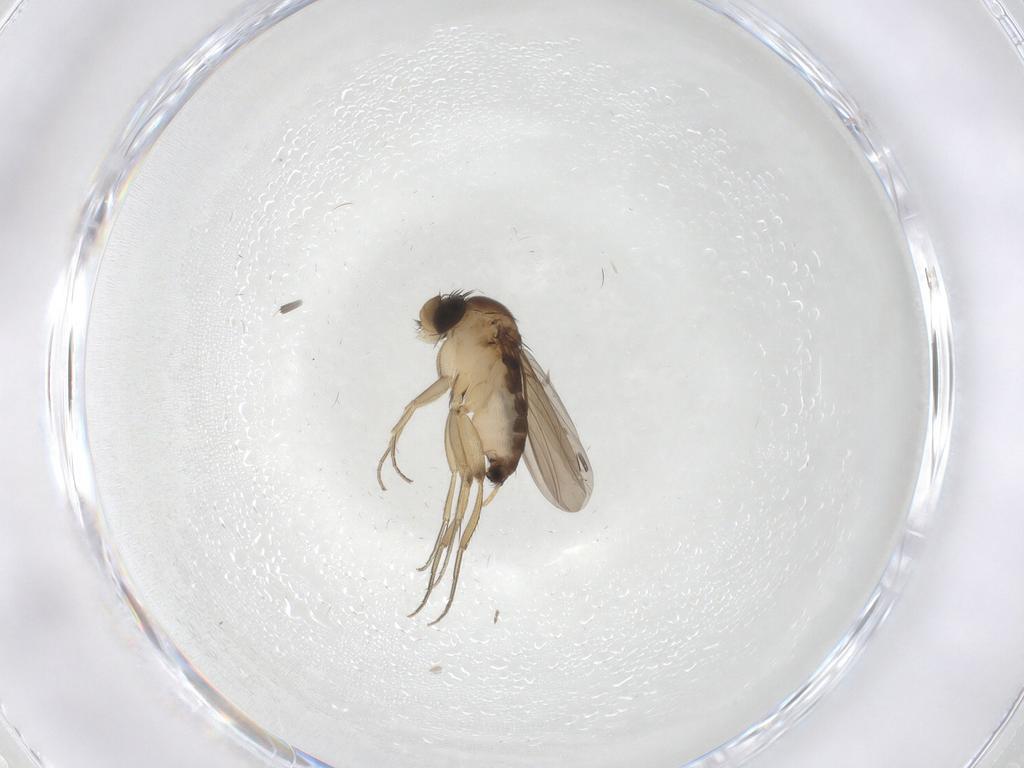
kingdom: Animalia
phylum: Arthropoda
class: Insecta
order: Diptera
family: Phoridae
